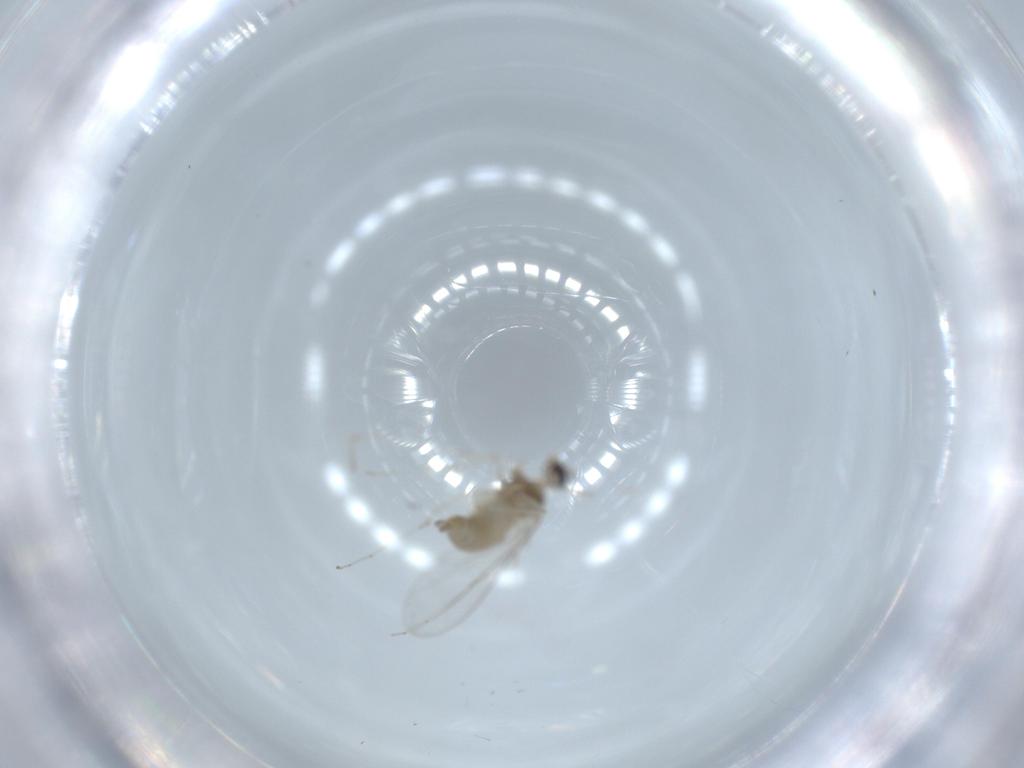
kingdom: Animalia
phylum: Arthropoda
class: Insecta
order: Diptera
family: Cecidomyiidae
